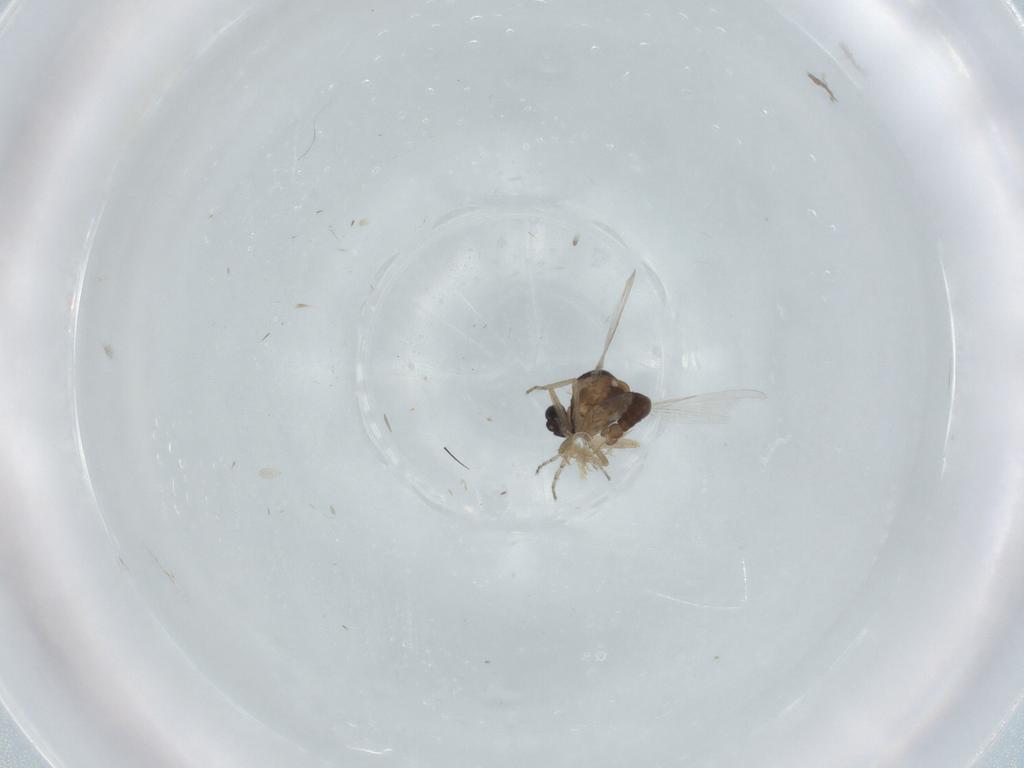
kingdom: Animalia
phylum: Arthropoda
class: Insecta
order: Diptera
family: Ceratopogonidae
